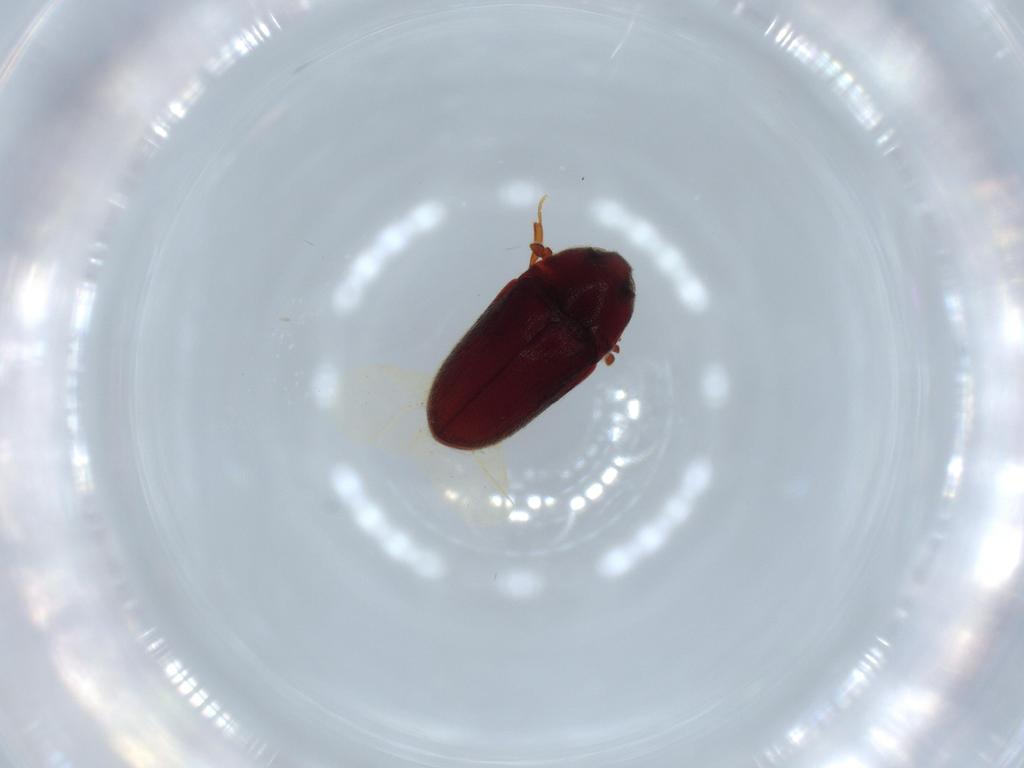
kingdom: Animalia
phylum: Arthropoda
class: Insecta
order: Coleoptera
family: Throscidae
